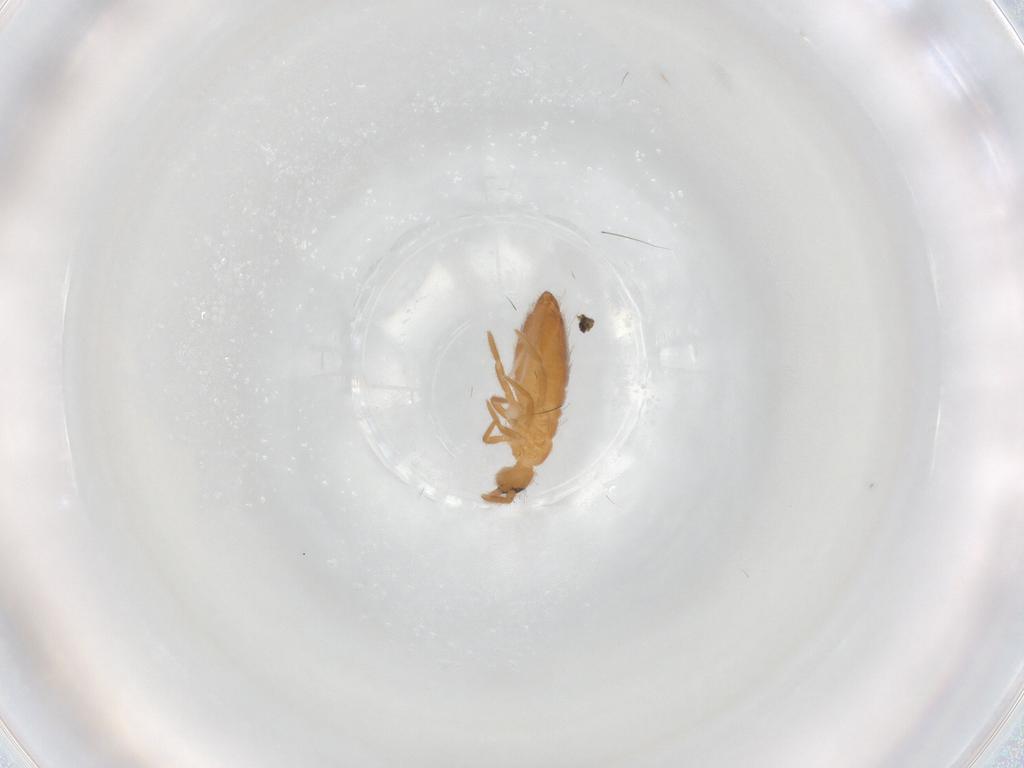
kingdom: Animalia
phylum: Arthropoda
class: Collembola
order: Entomobryomorpha
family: Entomobryidae
